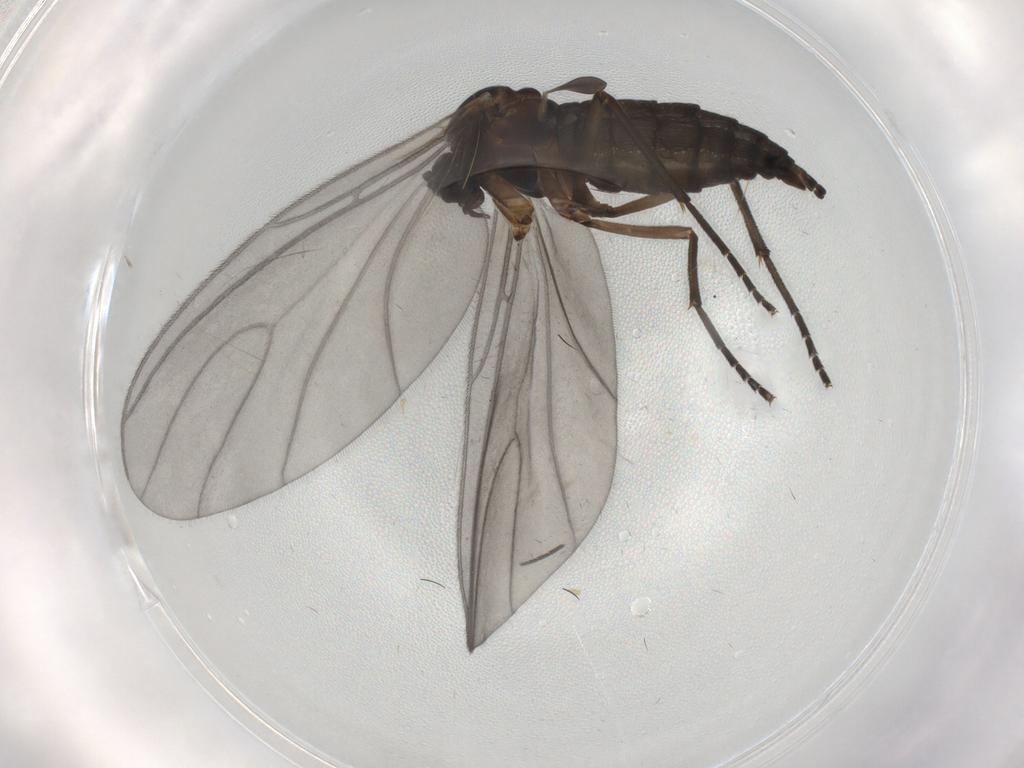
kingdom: Animalia
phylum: Arthropoda
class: Insecta
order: Diptera
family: Sciaridae
